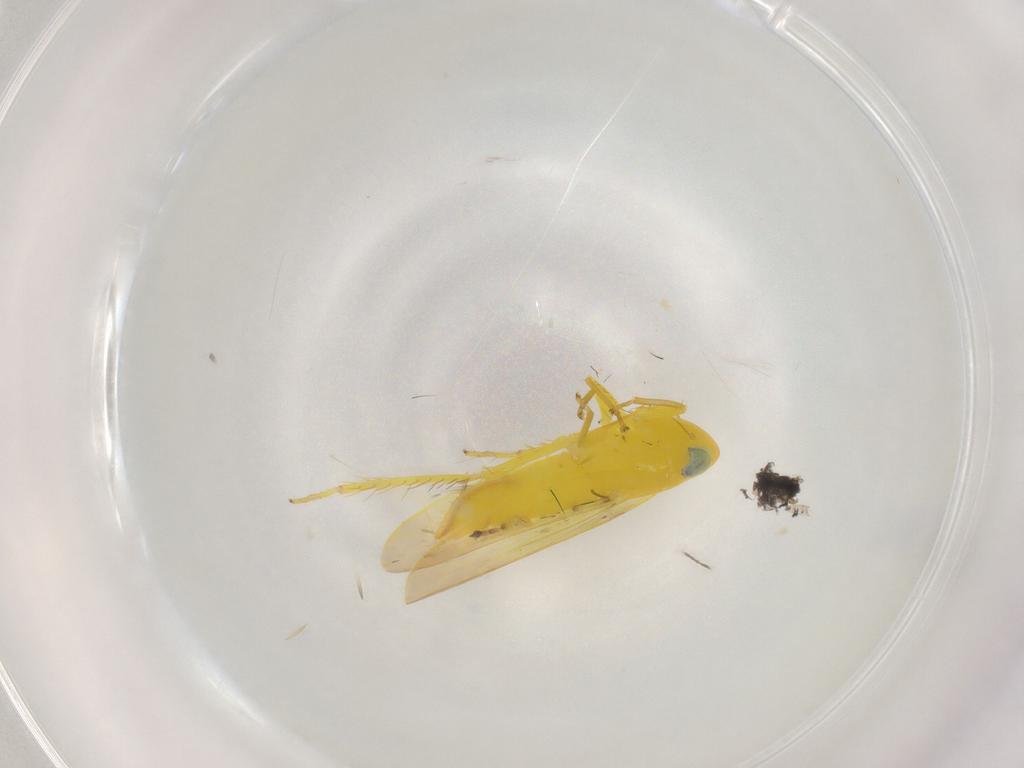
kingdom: Animalia
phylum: Arthropoda
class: Insecta
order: Hemiptera
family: Cicadellidae
